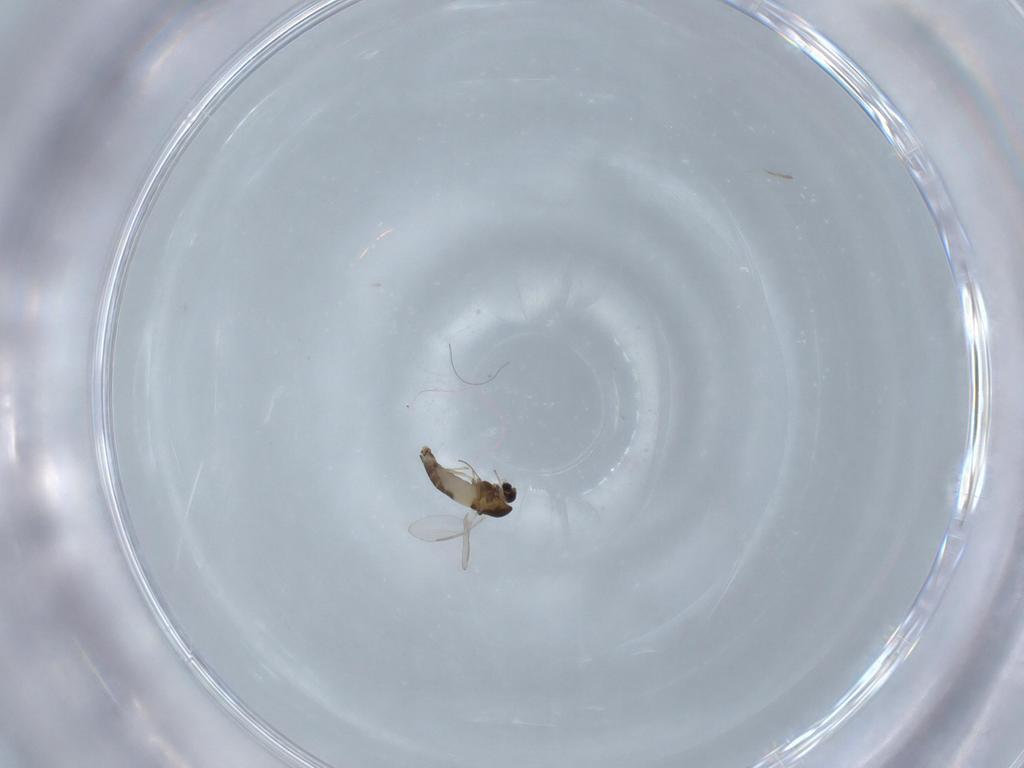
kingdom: Animalia
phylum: Arthropoda
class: Insecta
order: Diptera
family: Chironomidae
